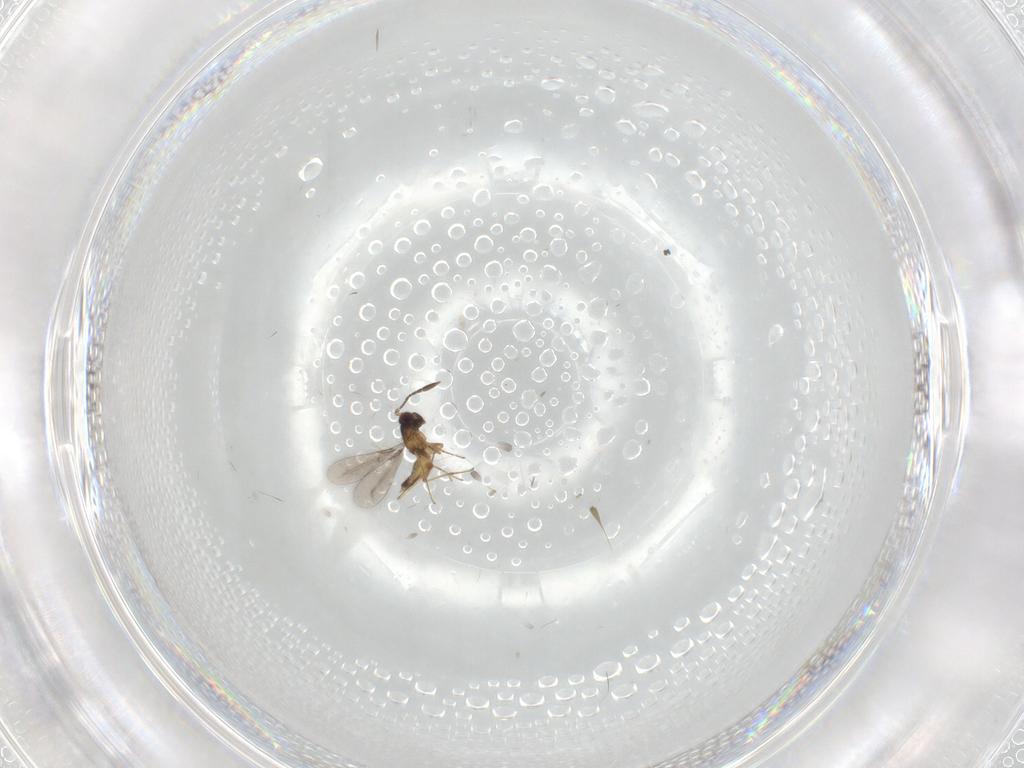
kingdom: Animalia
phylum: Arthropoda
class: Insecta
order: Hymenoptera
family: Mymaridae
